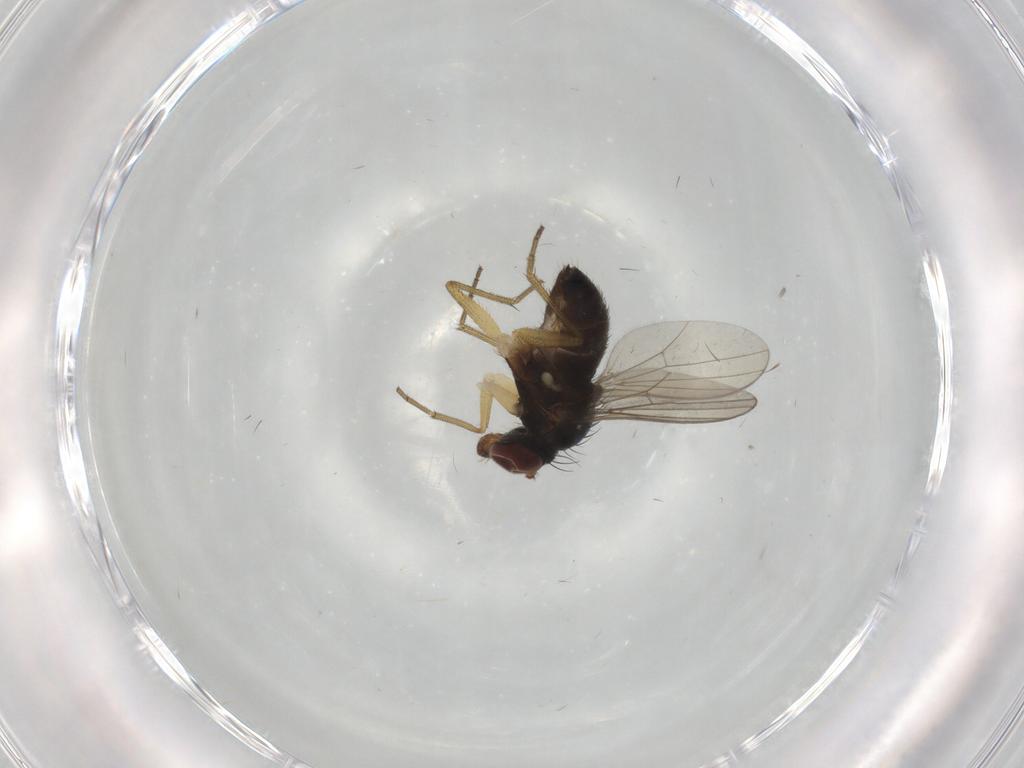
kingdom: Animalia
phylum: Arthropoda
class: Insecta
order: Diptera
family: Dolichopodidae
